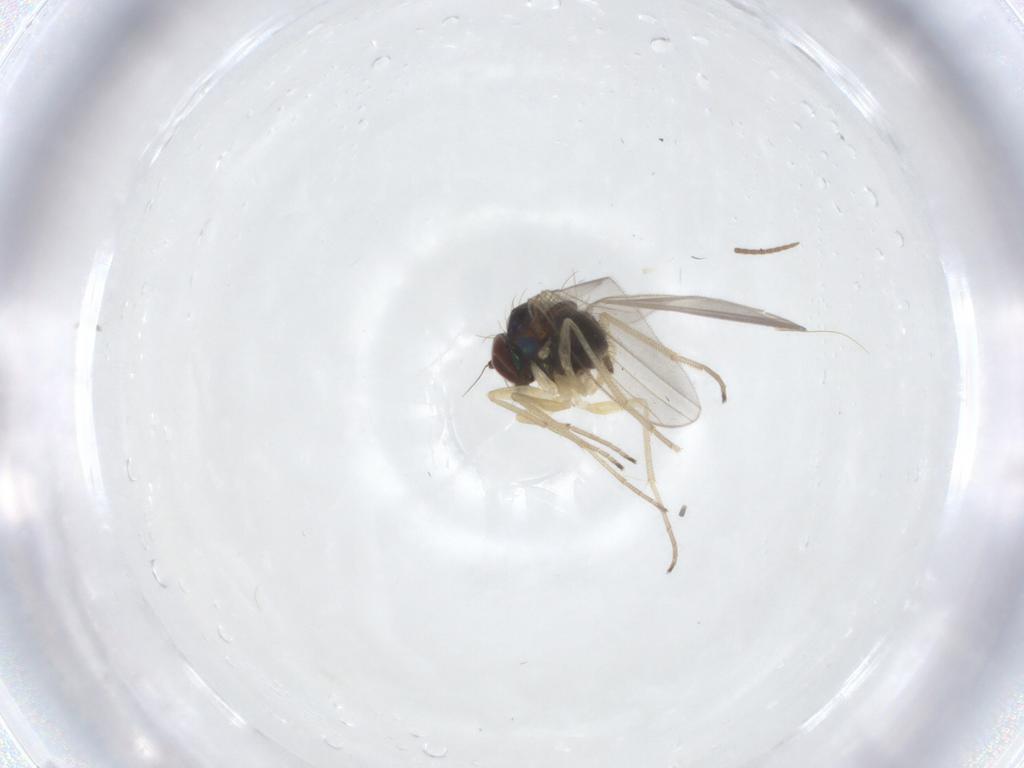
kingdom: Animalia
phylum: Arthropoda
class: Insecta
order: Diptera
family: Dolichopodidae
